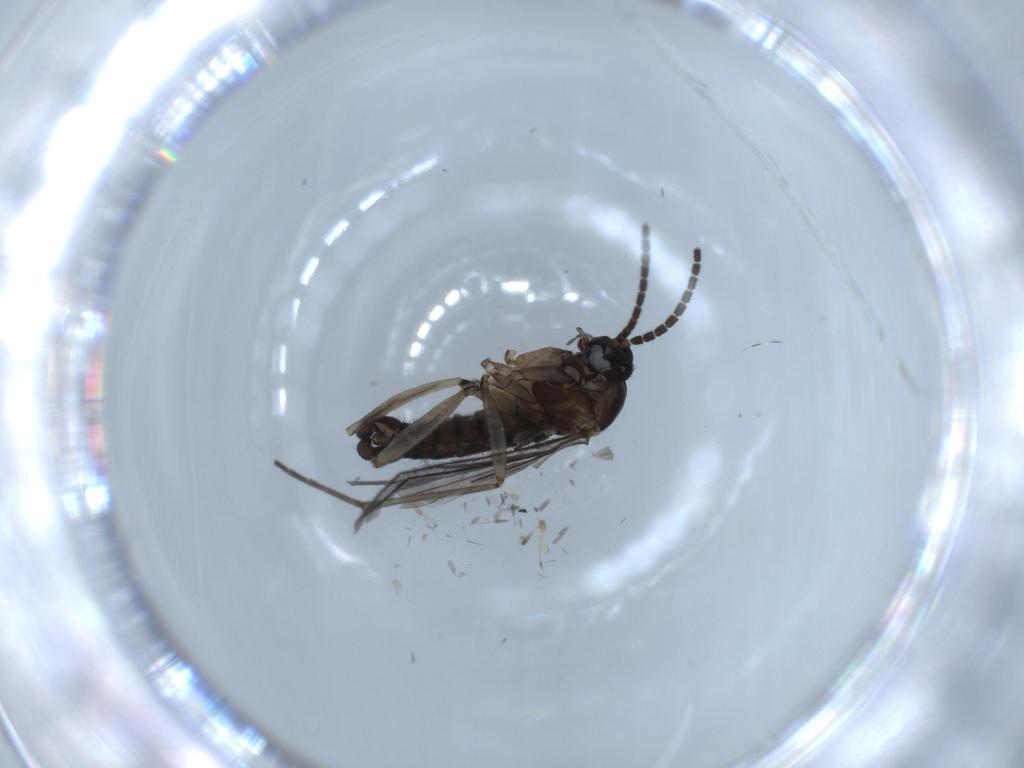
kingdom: Animalia
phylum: Arthropoda
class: Insecta
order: Diptera
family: Sciaridae
